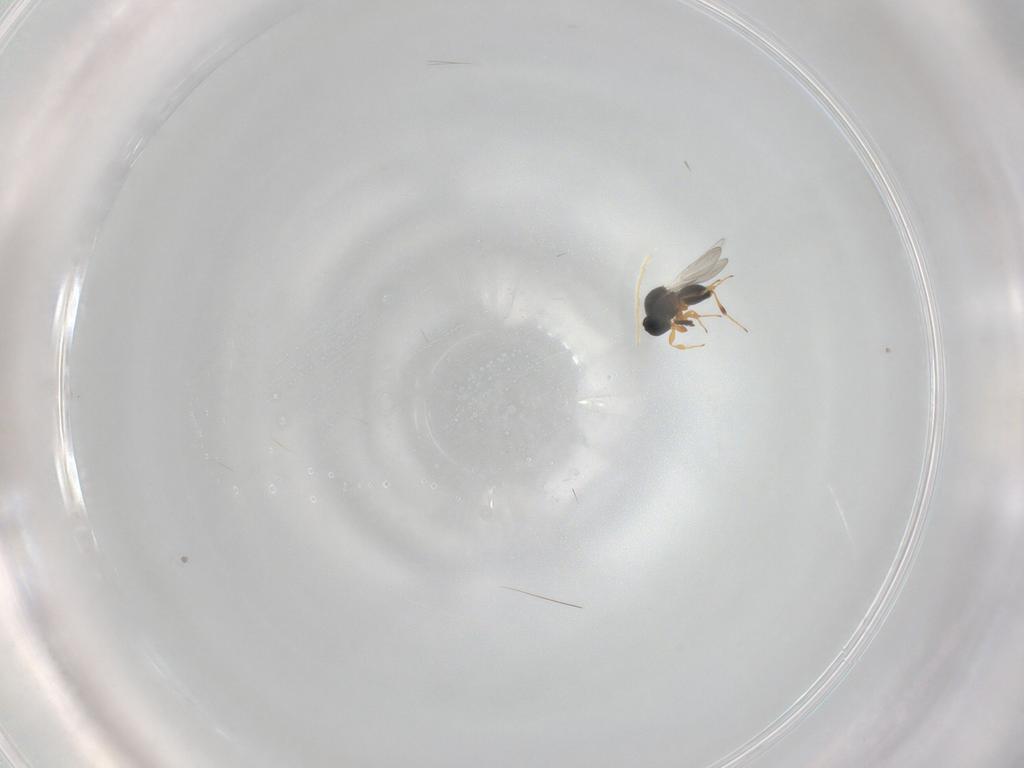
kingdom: Animalia
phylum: Arthropoda
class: Insecta
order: Hymenoptera
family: Platygastridae
